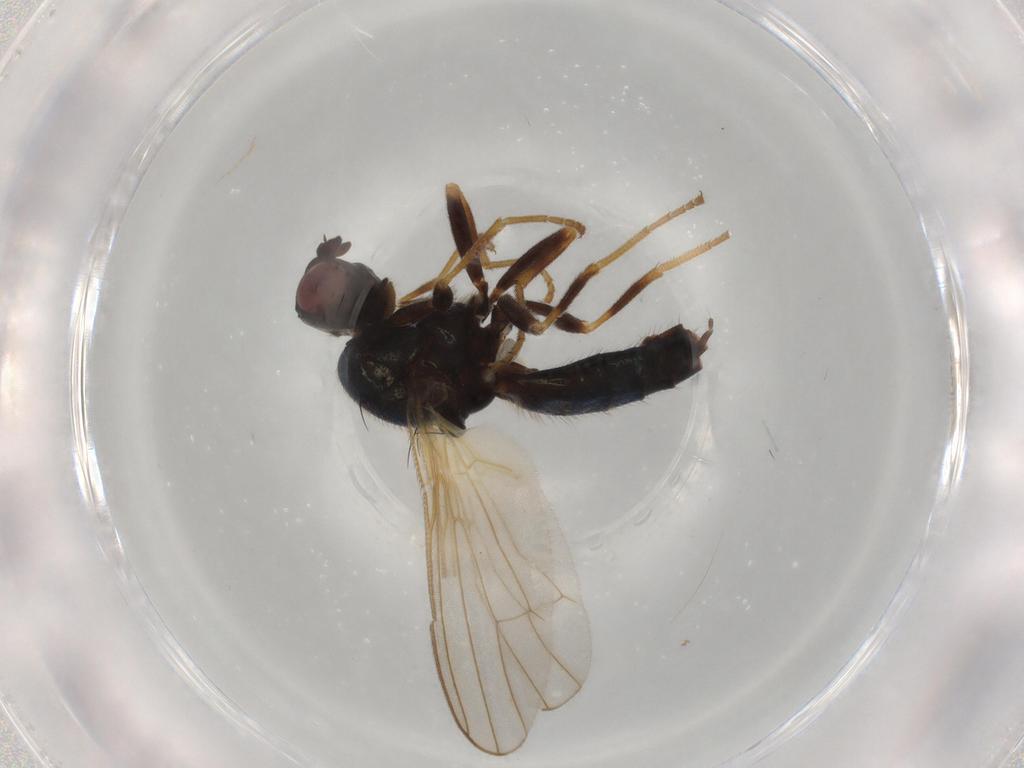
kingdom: Animalia
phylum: Arthropoda
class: Insecta
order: Diptera
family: Drosophilidae
